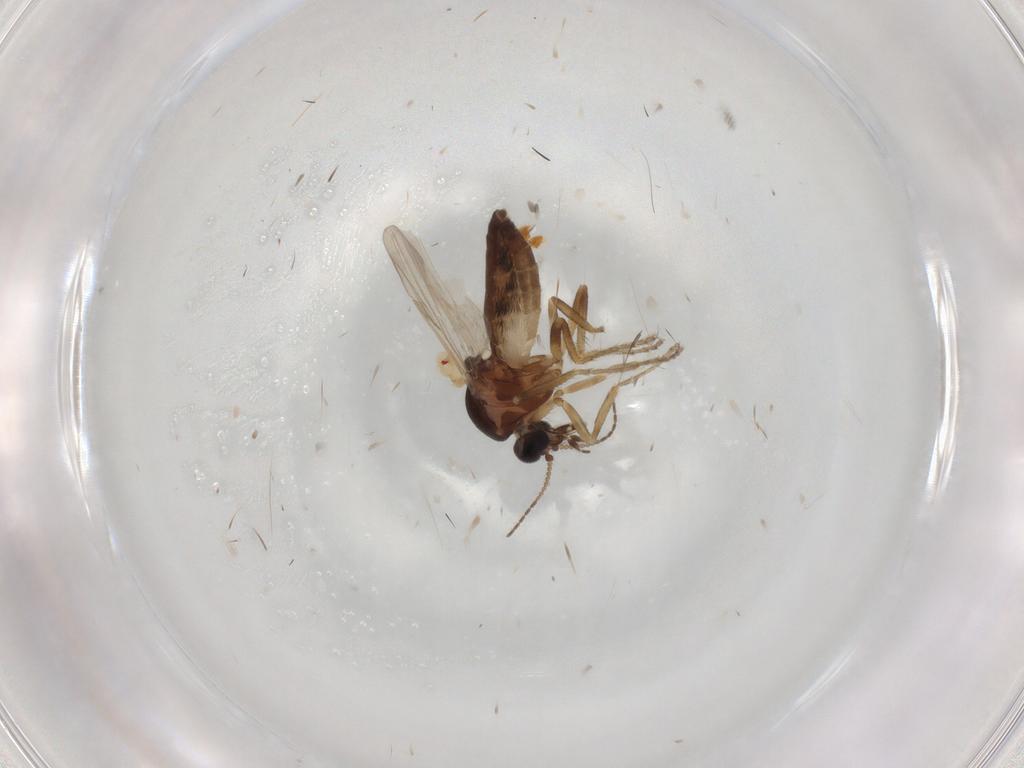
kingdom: Animalia
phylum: Arthropoda
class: Insecta
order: Diptera
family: Ceratopogonidae
